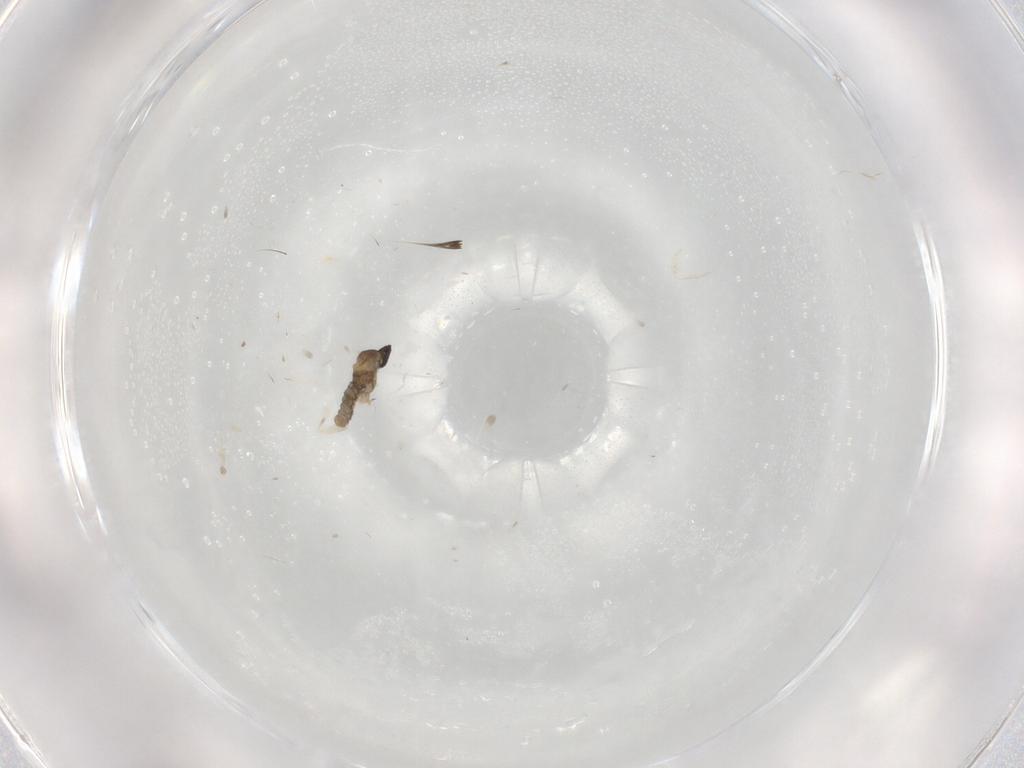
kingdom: Animalia
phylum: Arthropoda
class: Insecta
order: Diptera
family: Cecidomyiidae
